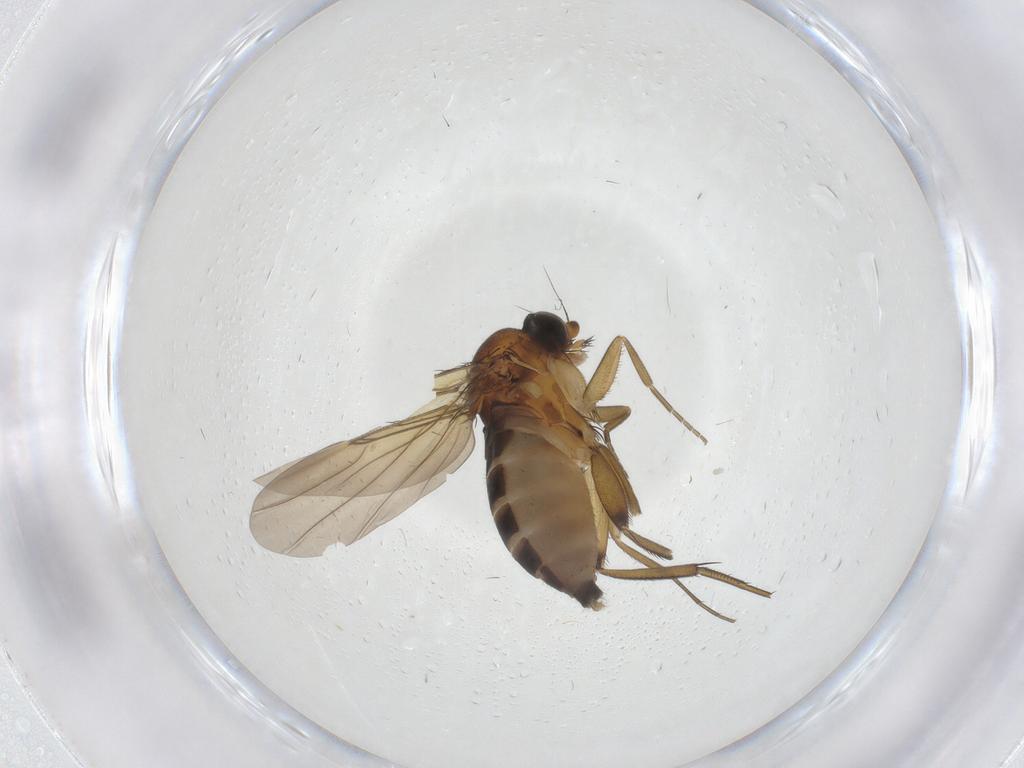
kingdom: Animalia
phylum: Arthropoda
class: Insecta
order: Diptera
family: Phoridae
